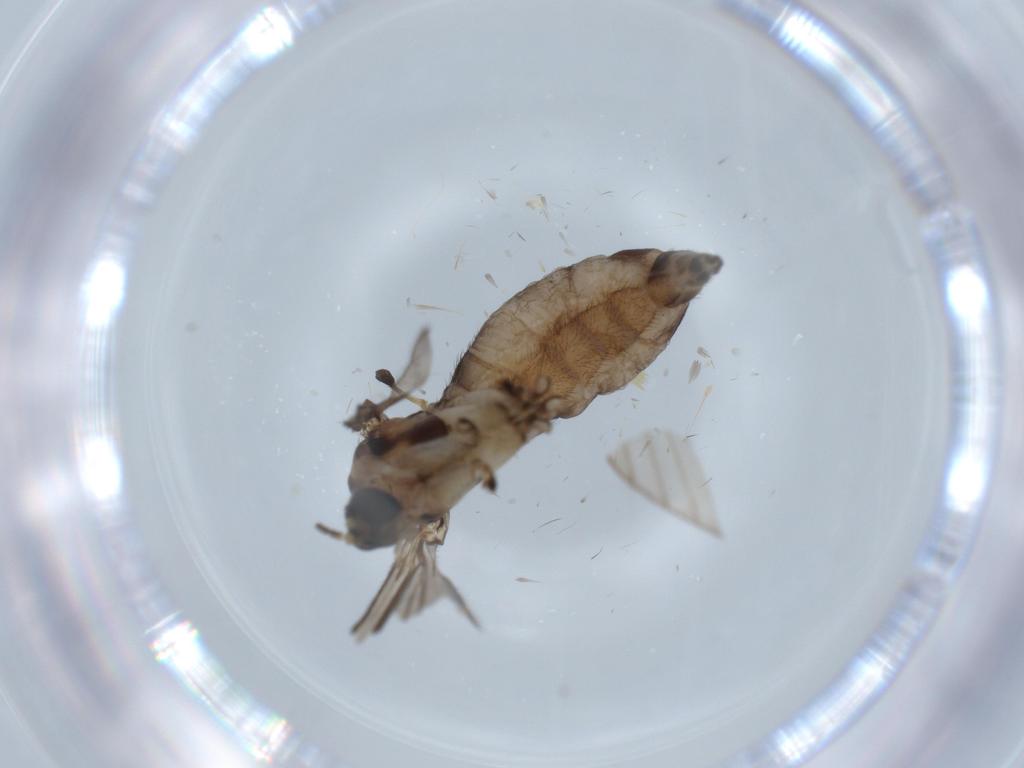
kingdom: Animalia
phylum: Arthropoda
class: Insecta
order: Diptera
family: Sciaridae
